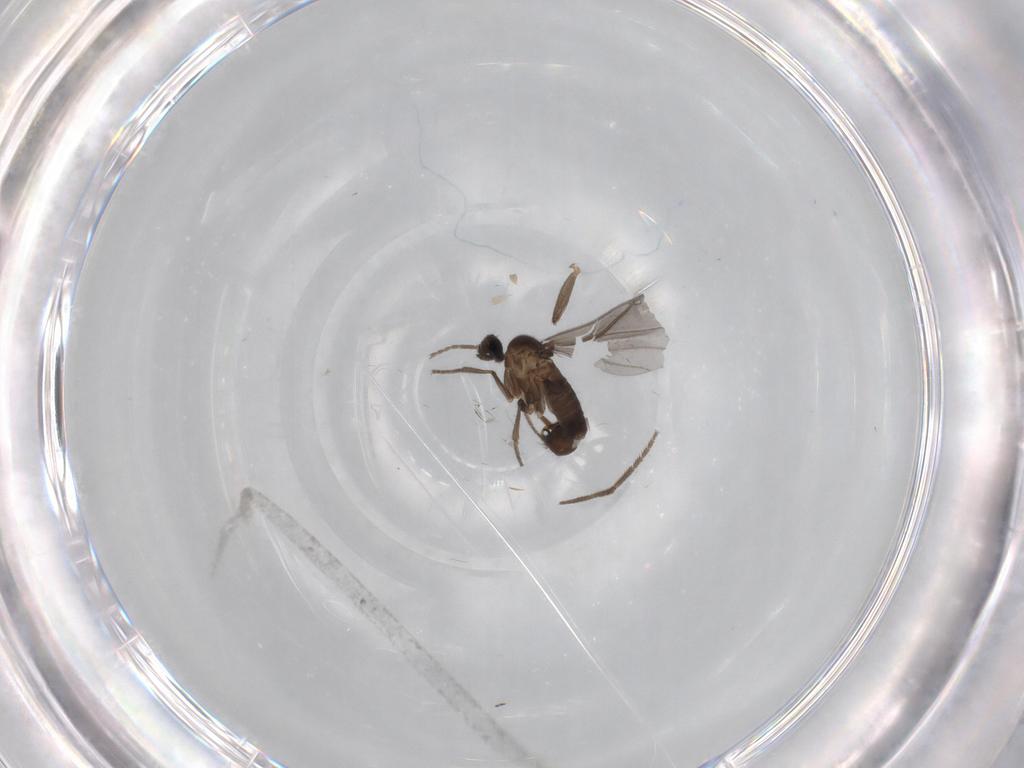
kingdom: Animalia
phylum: Arthropoda
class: Insecta
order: Diptera
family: Phoridae
